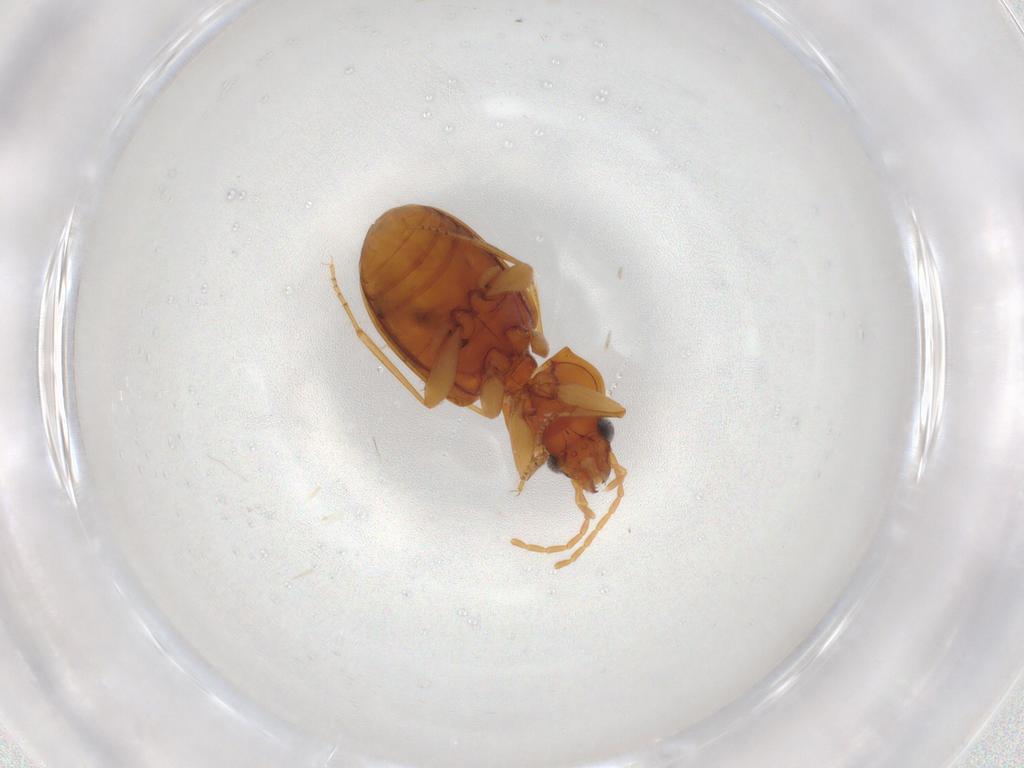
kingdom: Animalia
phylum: Arthropoda
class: Insecta
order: Coleoptera
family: Carabidae
